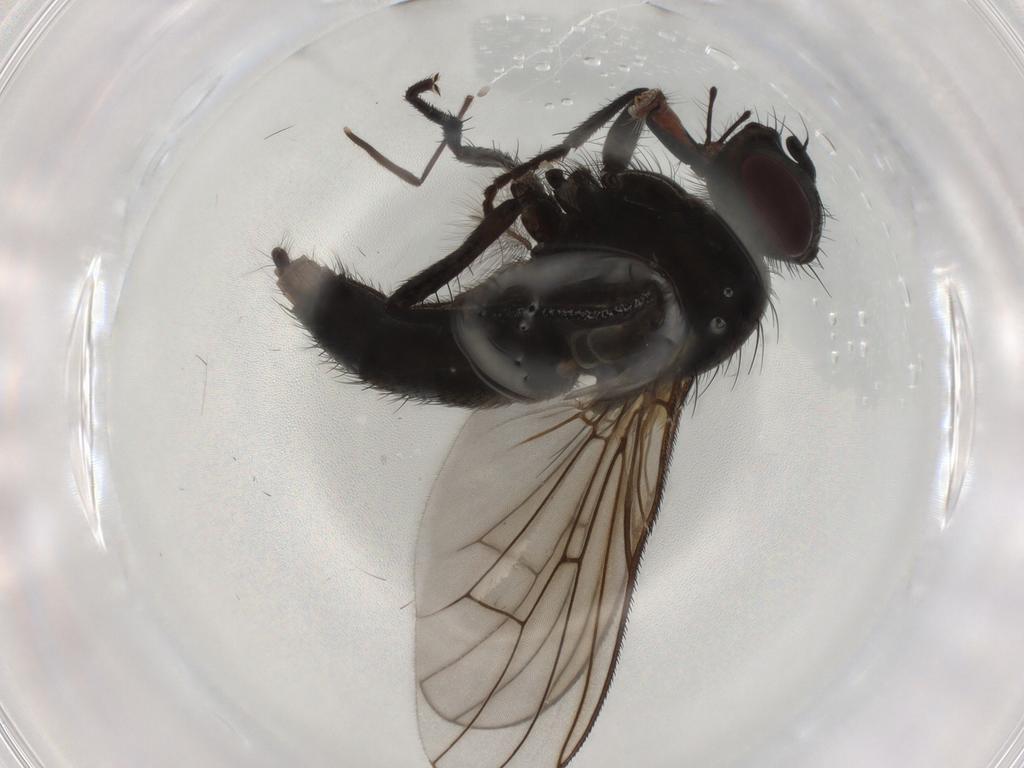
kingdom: Animalia
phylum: Arthropoda
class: Insecta
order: Diptera
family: Muscidae
